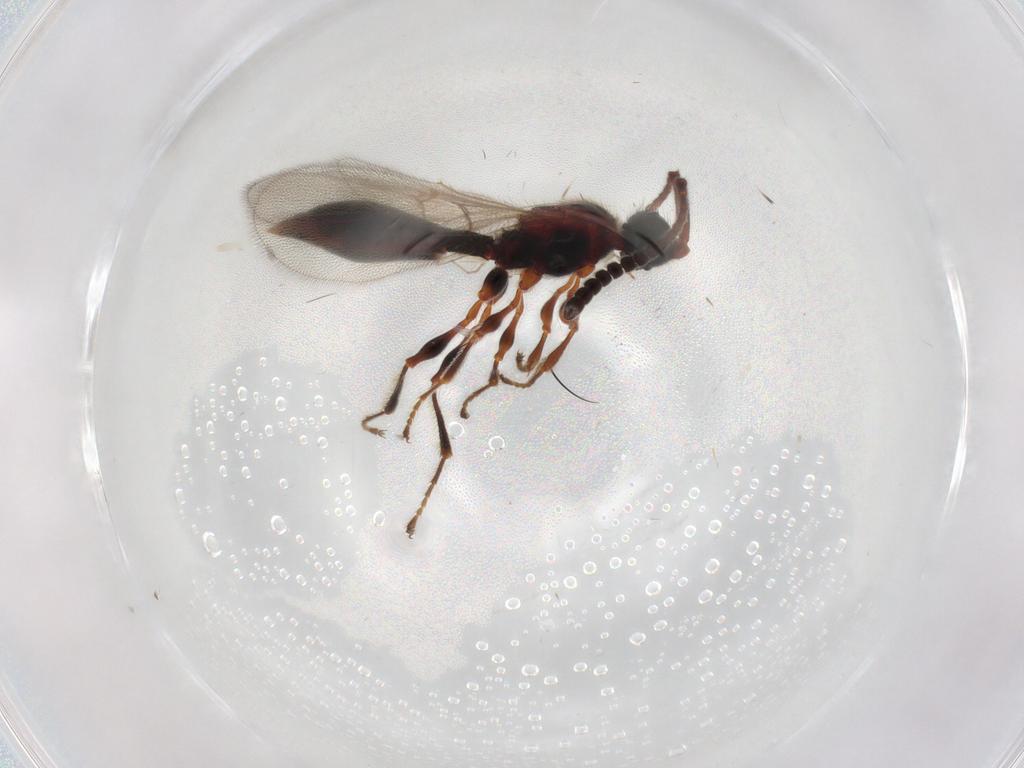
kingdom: Animalia
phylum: Arthropoda
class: Insecta
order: Hymenoptera
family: Diapriidae
